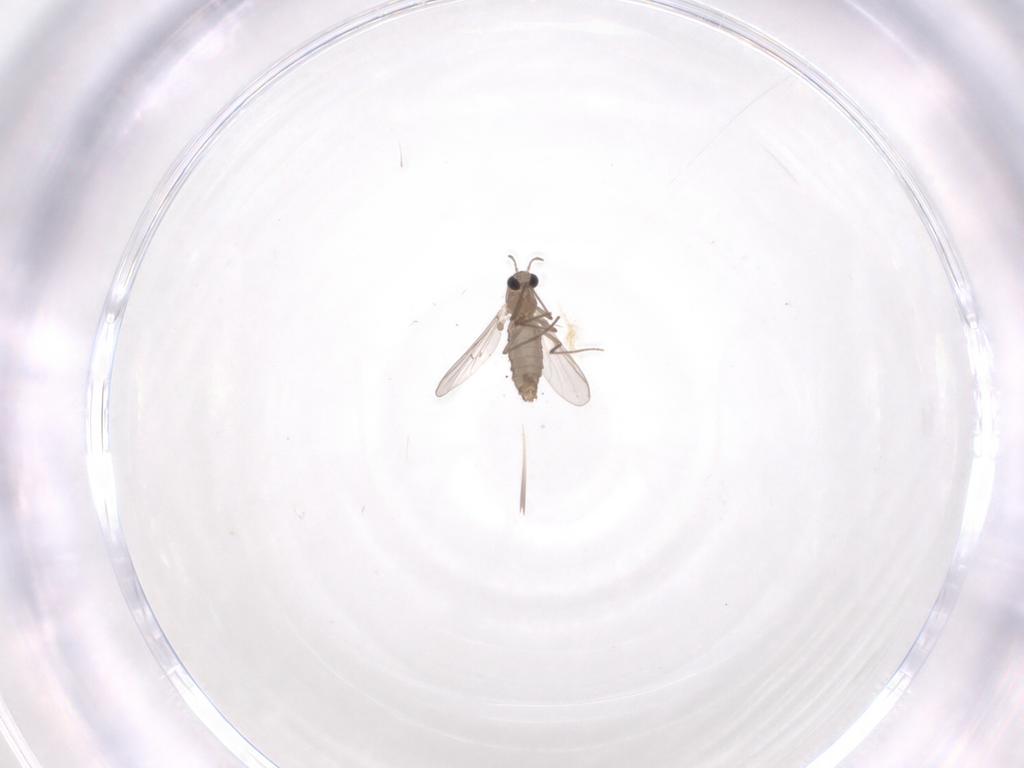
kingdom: Animalia
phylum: Arthropoda
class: Insecta
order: Diptera
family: Chironomidae
